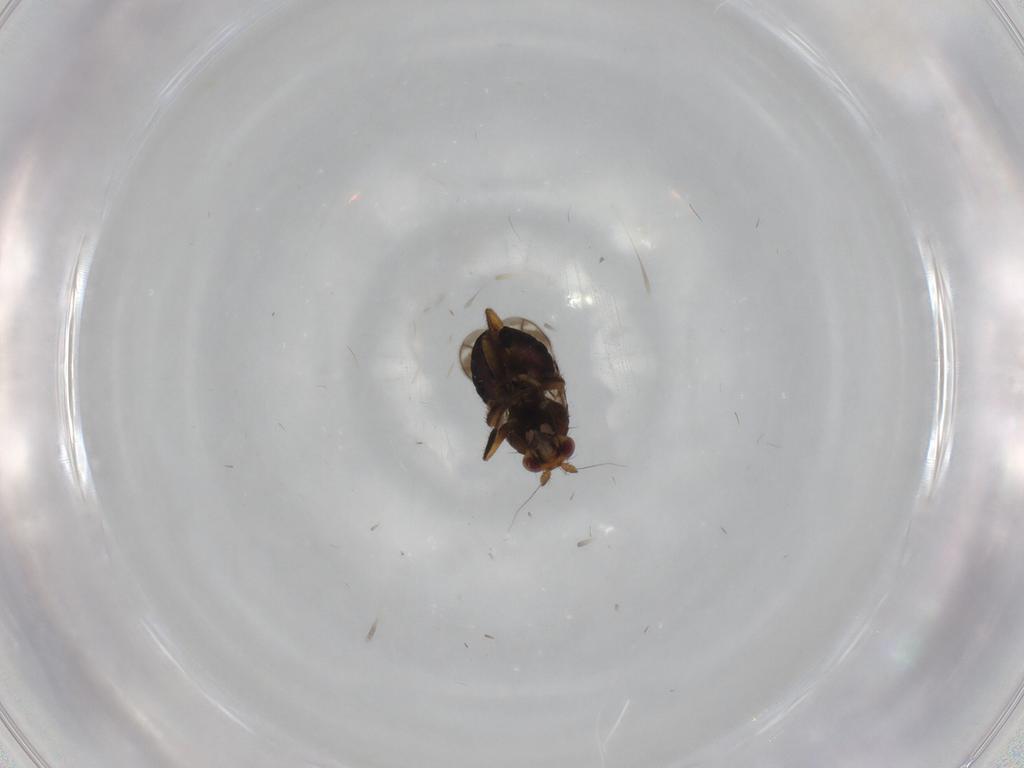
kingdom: Animalia
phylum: Arthropoda
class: Insecta
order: Diptera
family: Sphaeroceridae
